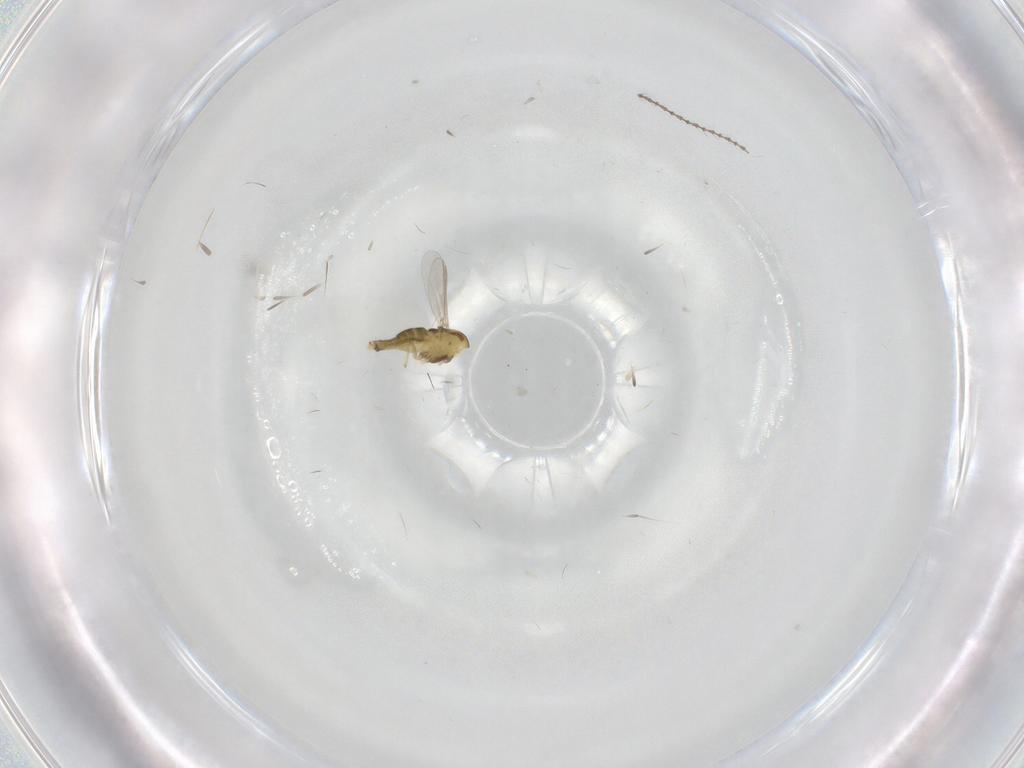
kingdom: Animalia
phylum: Arthropoda
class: Insecta
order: Diptera
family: Chironomidae
